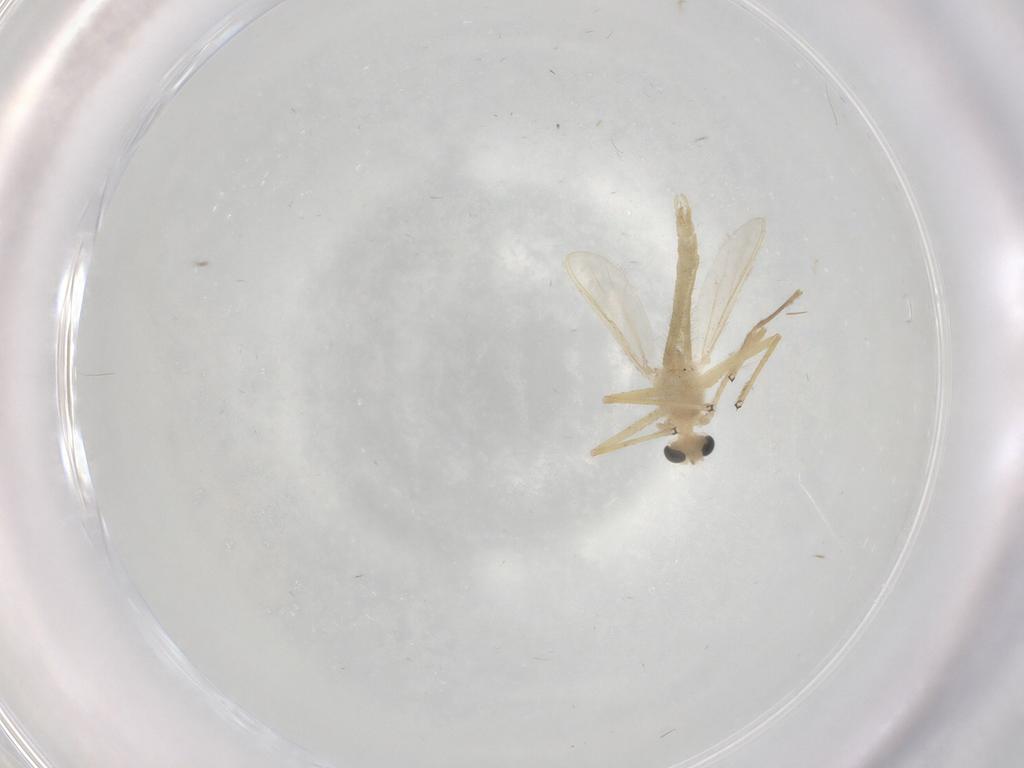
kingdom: Animalia
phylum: Arthropoda
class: Insecta
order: Diptera
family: Chironomidae
